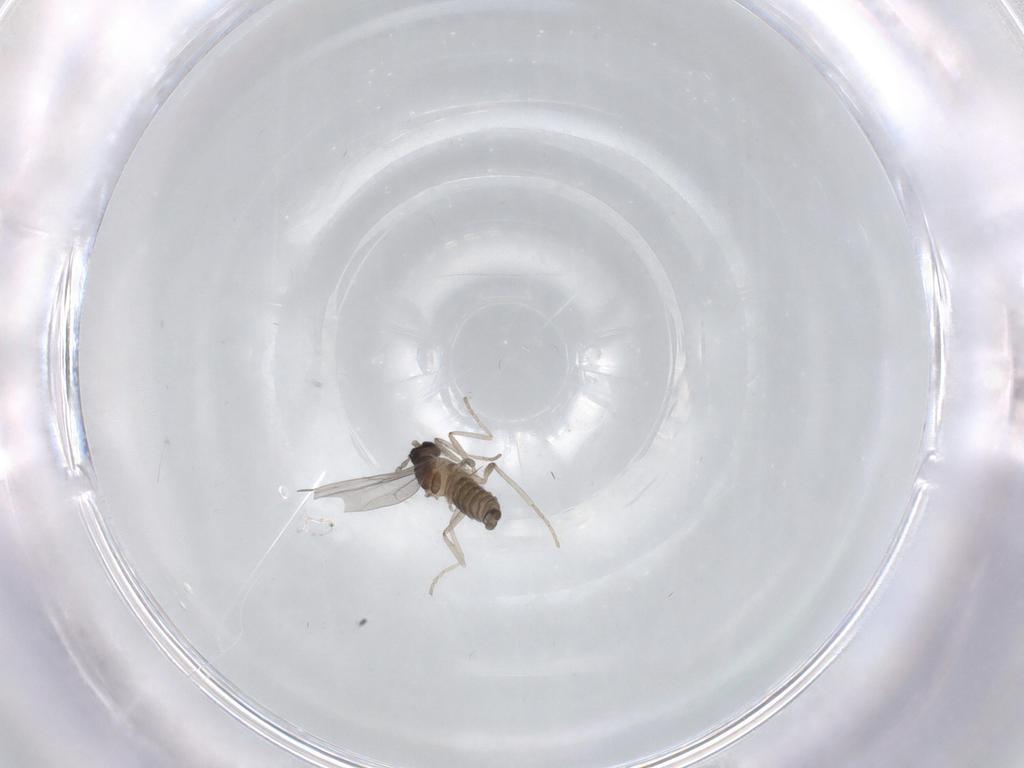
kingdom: Animalia
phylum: Arthropoda
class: Insecta
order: Diptera
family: Cecidomyiidae
